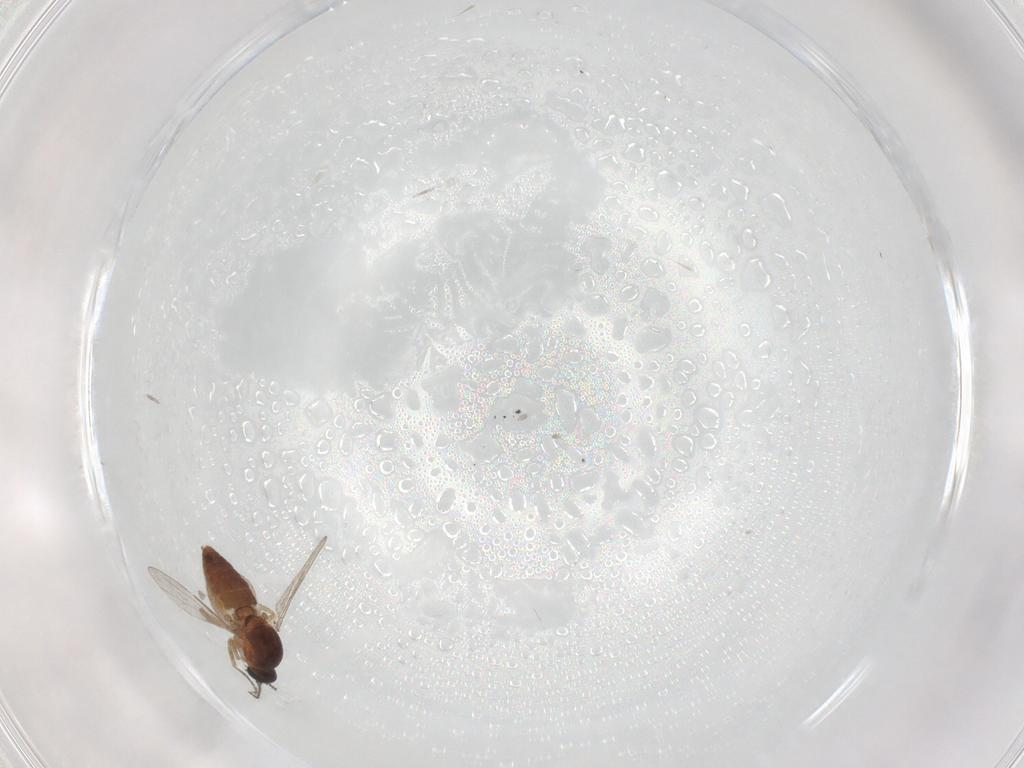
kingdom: Animalia
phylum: Arthropoda
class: Insecta
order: Diptera
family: Ceratopogonidae
